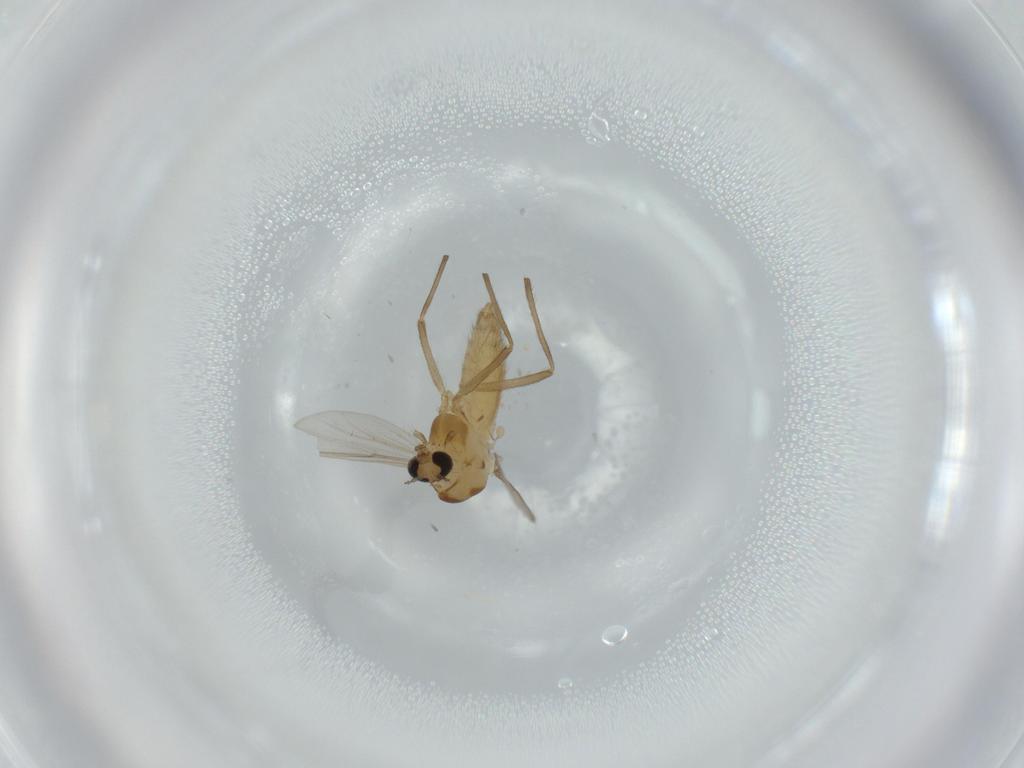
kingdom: Animalia
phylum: Arthropoda
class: Insecta
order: Diptera
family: Chironomidae
